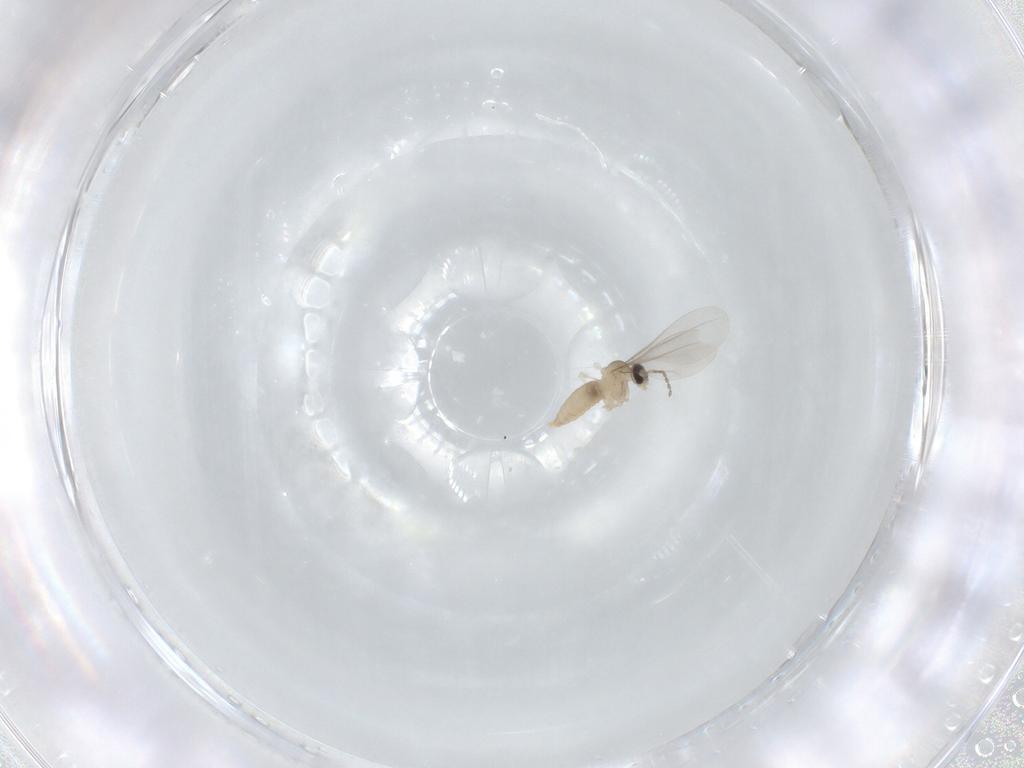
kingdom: Animalia
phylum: Arthropoda
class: Insecta
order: Diptera
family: Cecidomyiidae
